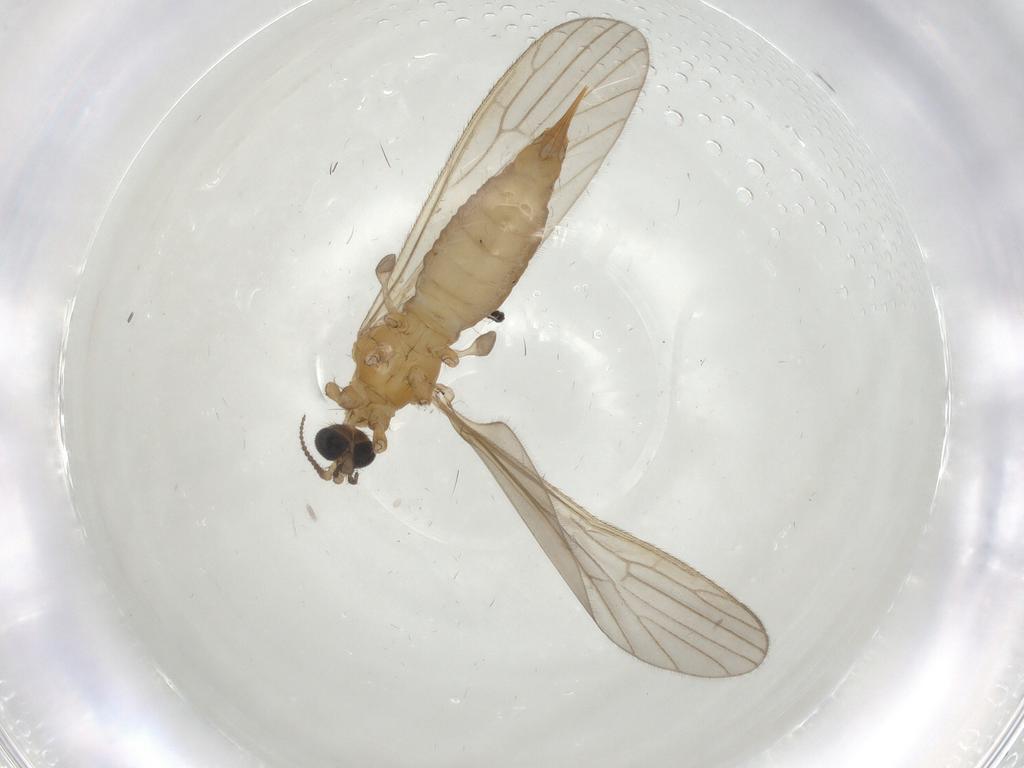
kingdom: Animalia
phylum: Arthropoda
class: Insecta
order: Diptera
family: Limoniidae
